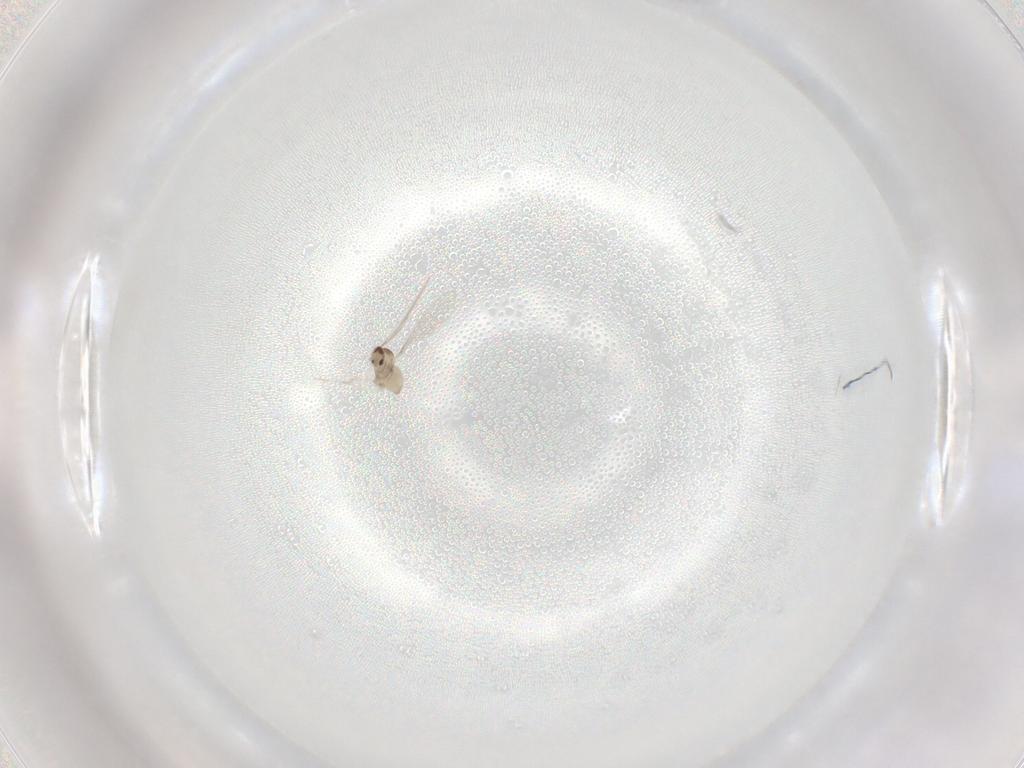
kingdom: Animalia
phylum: Arthropoda
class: Insecta
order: Diptera
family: Cecidomyiidae
